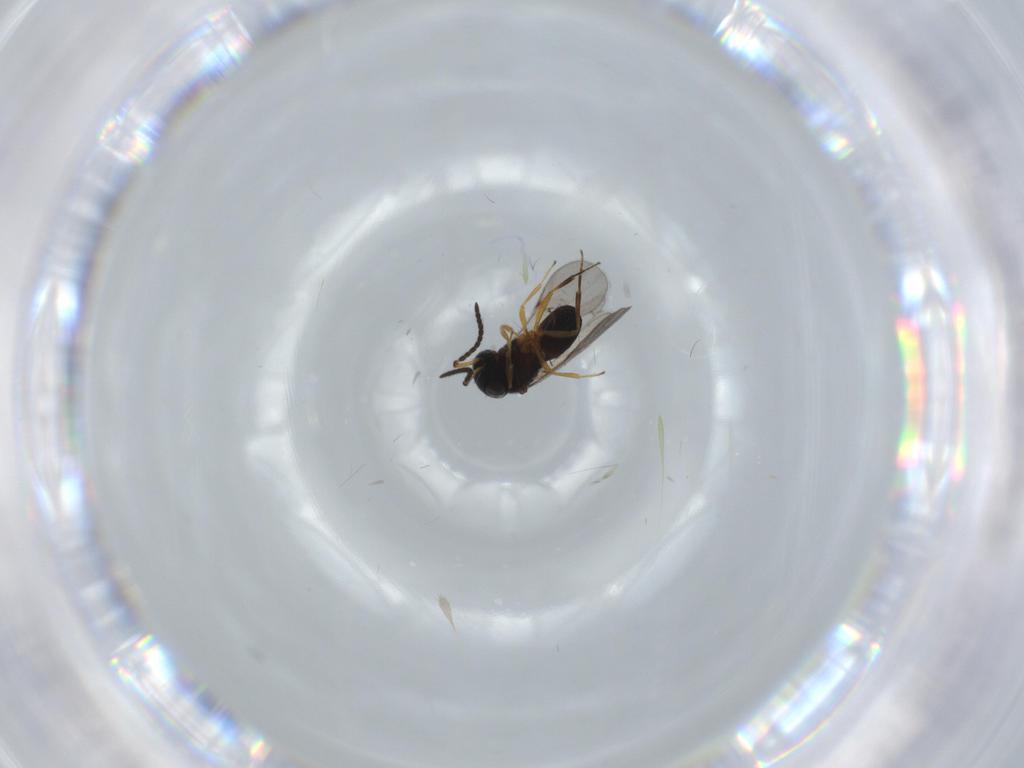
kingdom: Animalia
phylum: Arthropoda
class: Insecta
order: Hymenoptera
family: Scelionidae
